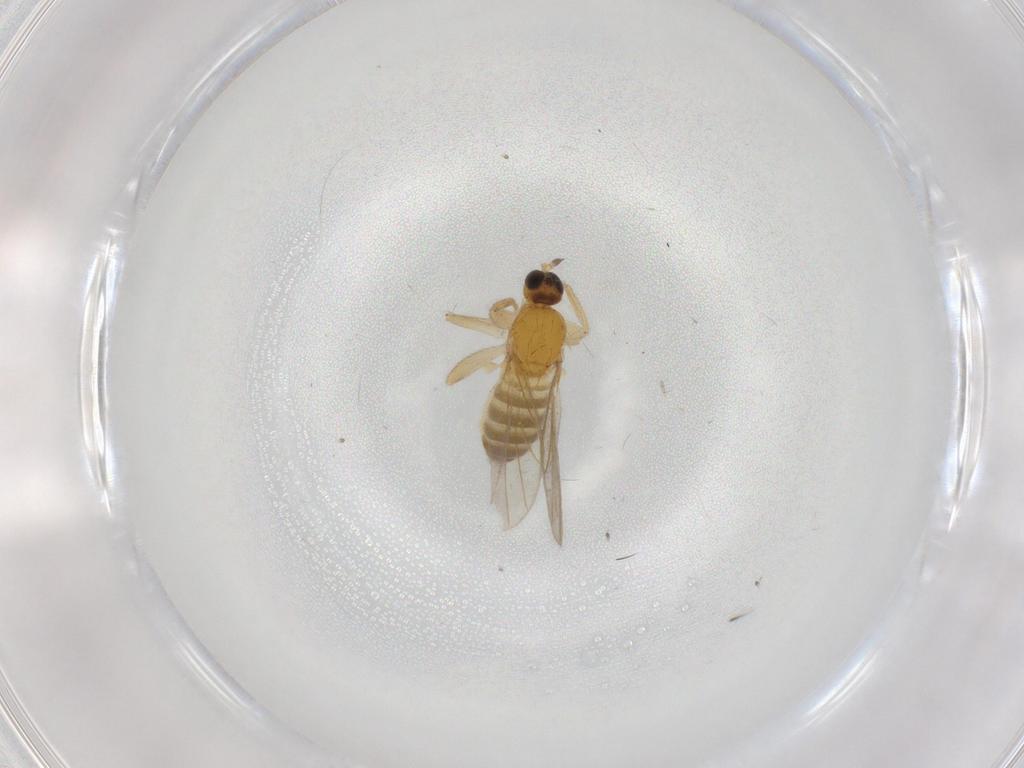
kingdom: Animalia
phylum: Arthropoda
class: Insecta
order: Diptera
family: Hybotidae
